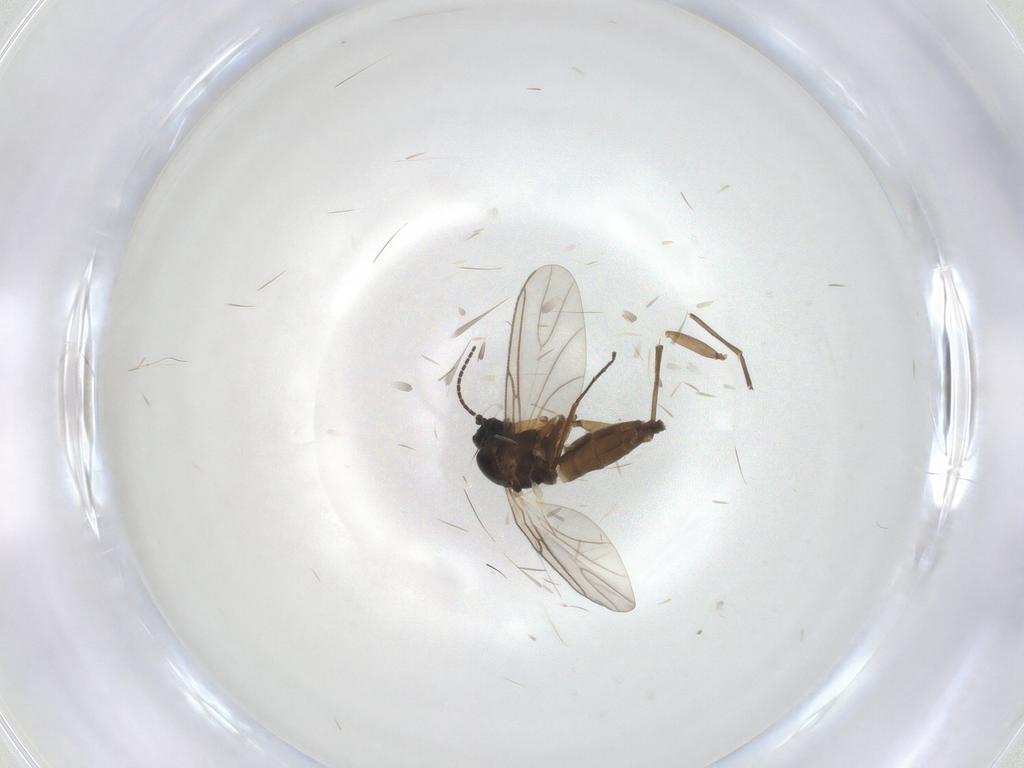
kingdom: Animalia
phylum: Arthropoda
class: Insecta
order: Diptera
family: Sciaridae
